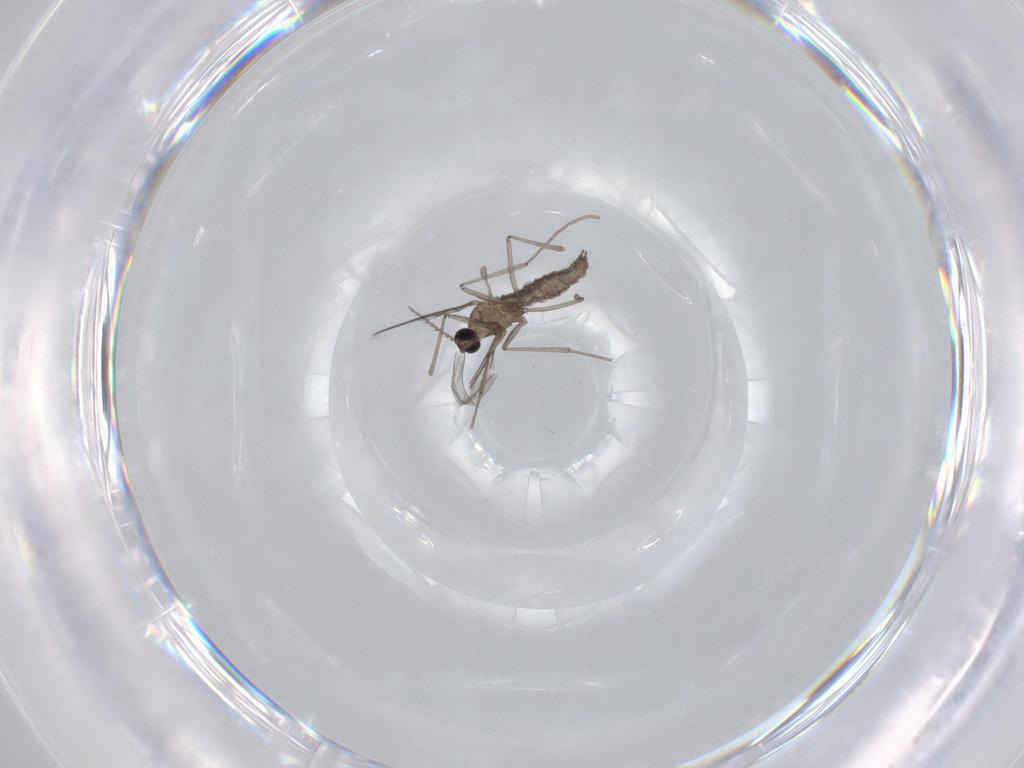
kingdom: Animalia
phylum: Arthropoda
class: Insecta
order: Diptera
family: Cecidomyiidae
